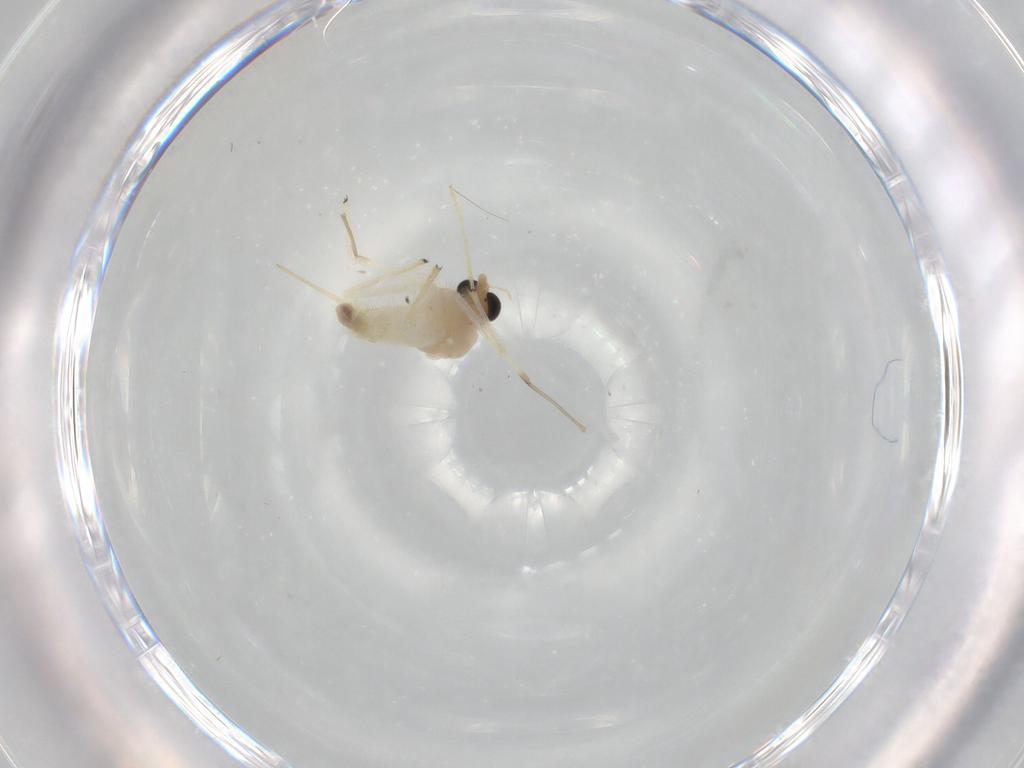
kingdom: Animalia
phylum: Arthropoda
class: Insecta
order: Diptera
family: Chironomidae
